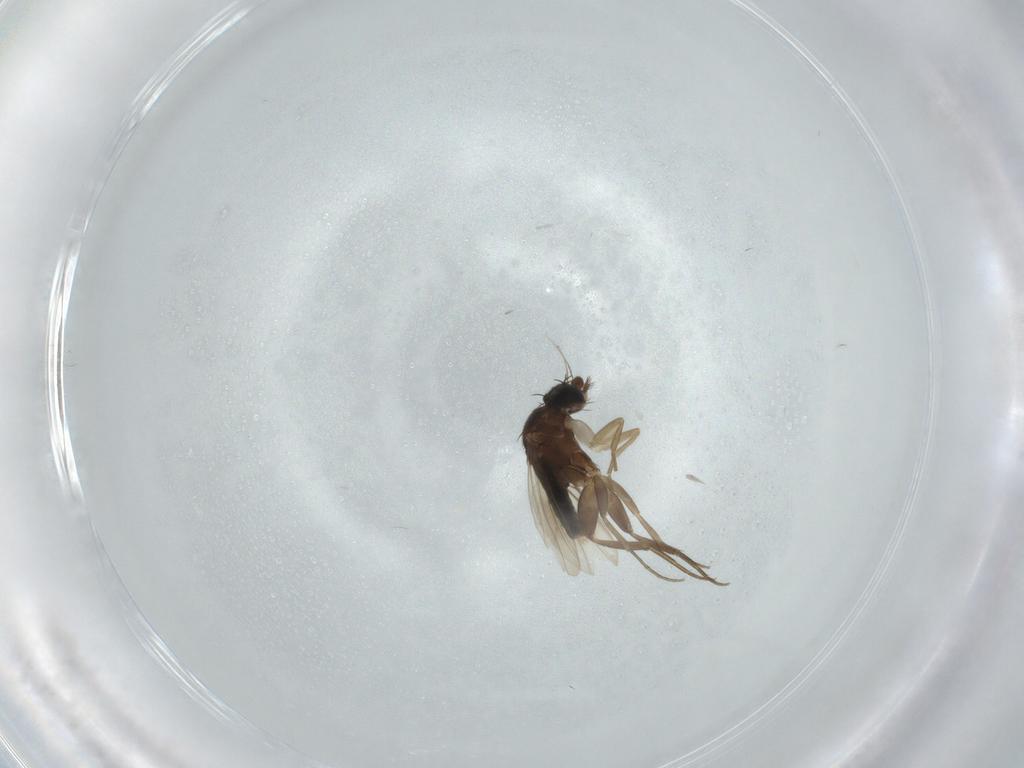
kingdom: Animalia
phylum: Arthropoda
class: Insecta
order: Diptera
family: Phoridae
